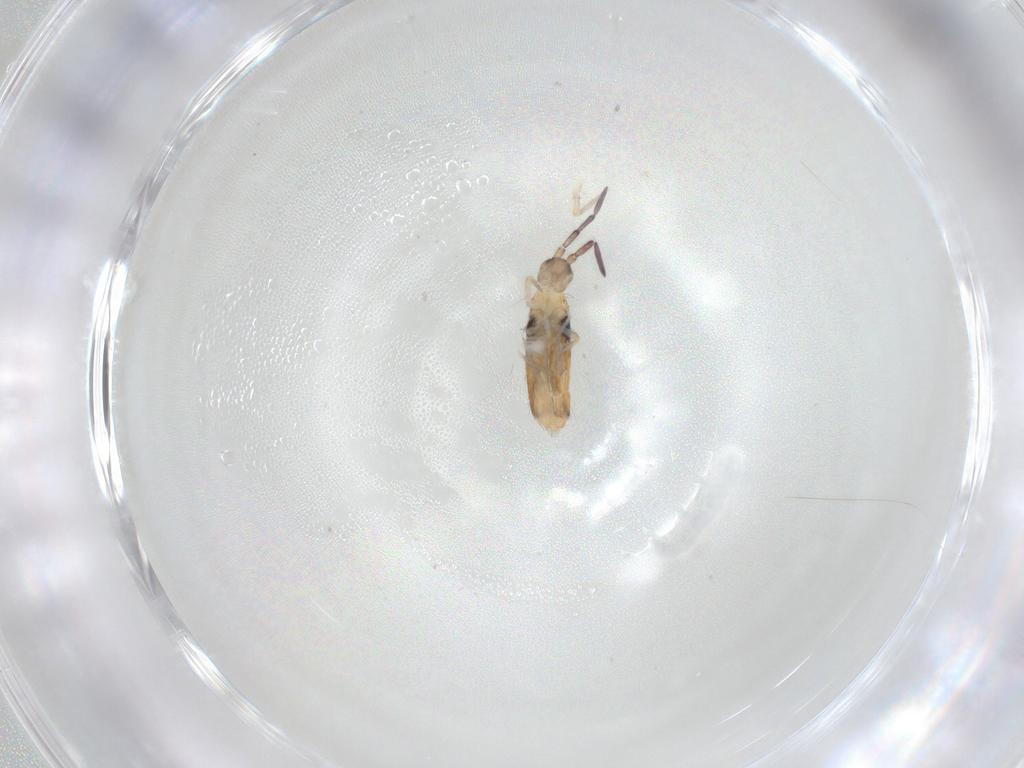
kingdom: Animalia
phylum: Arthropoda
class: Collembola
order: Entomobryomorpha
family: Entomobryidae
